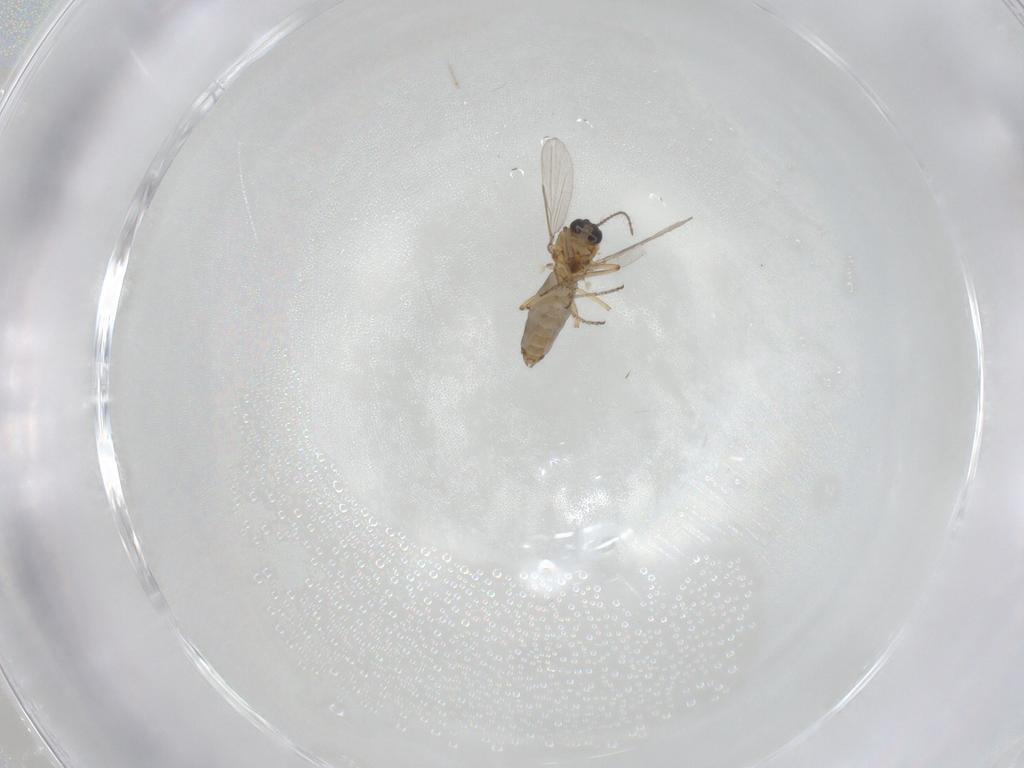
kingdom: Animalia
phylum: Arthropoda
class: Insecta
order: Diptera
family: Ceratopogonidae
